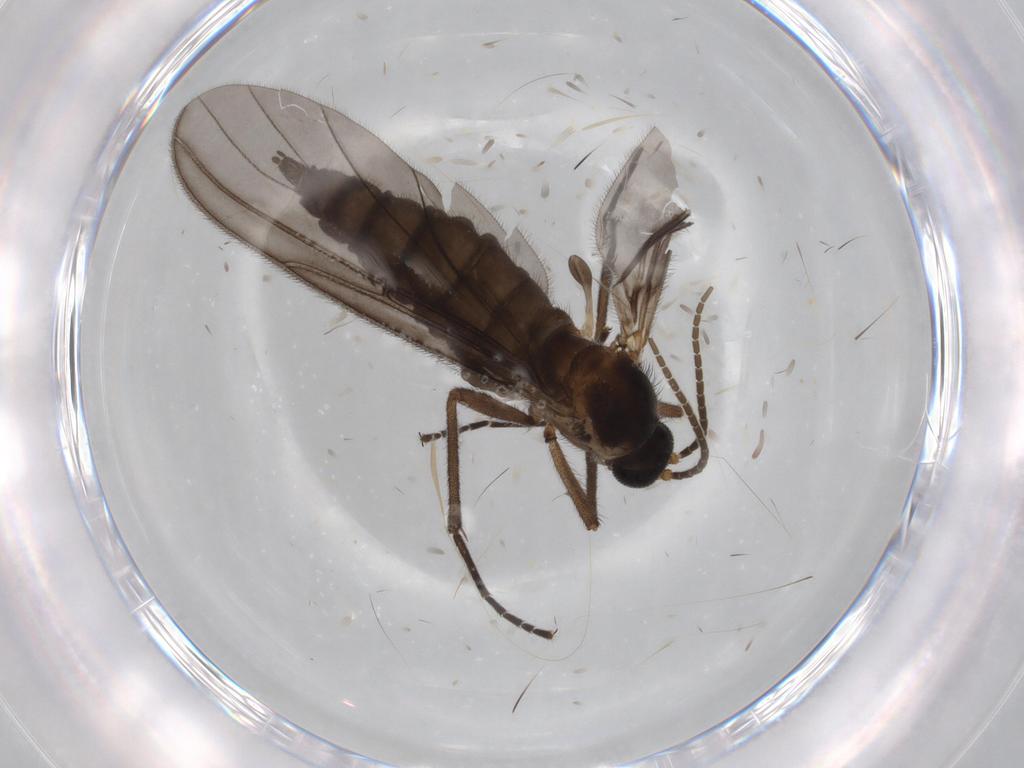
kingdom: Animalia
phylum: Arthropoda
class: Insecta
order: Diptera
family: Sciaridae
